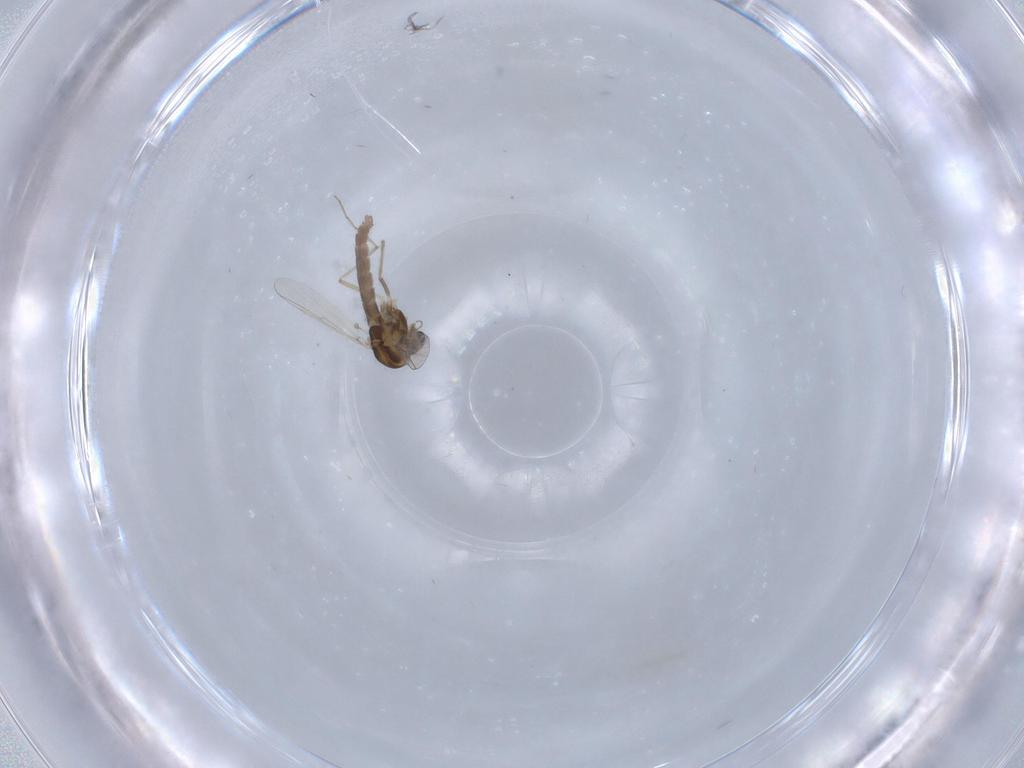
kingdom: Animalia
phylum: Arthropoda
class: Insecta
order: Diptera
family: Chironomidae
